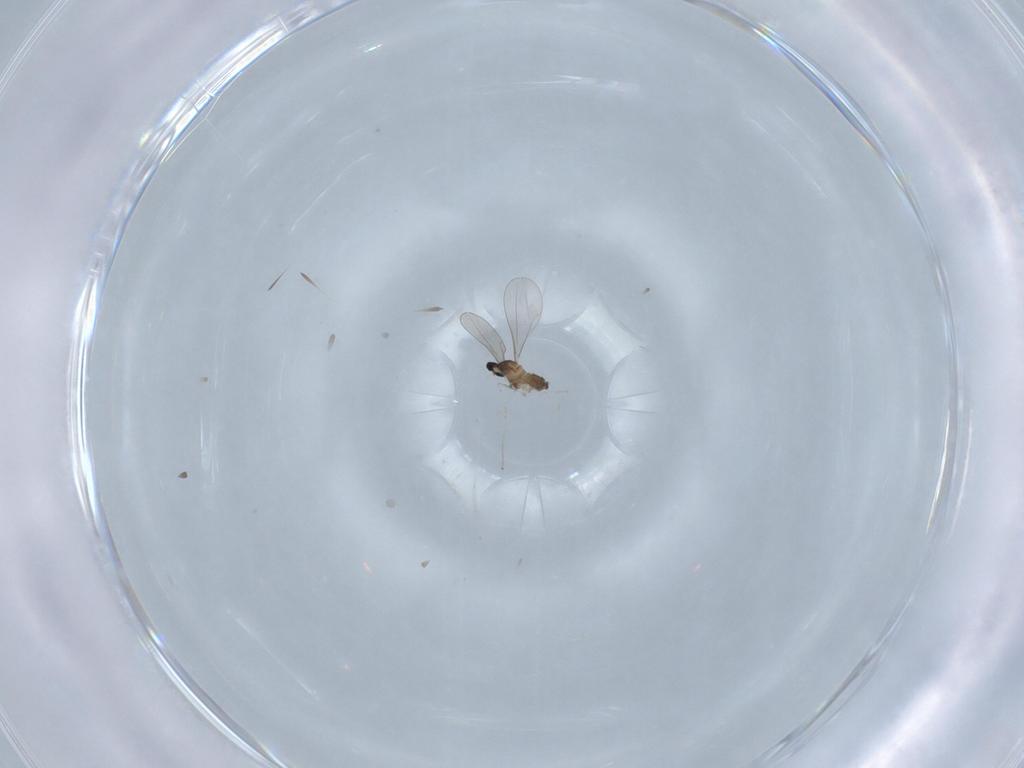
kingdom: Animalia
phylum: Arthropoda
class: Insecta
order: Diptera
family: Cecidomyiidae
